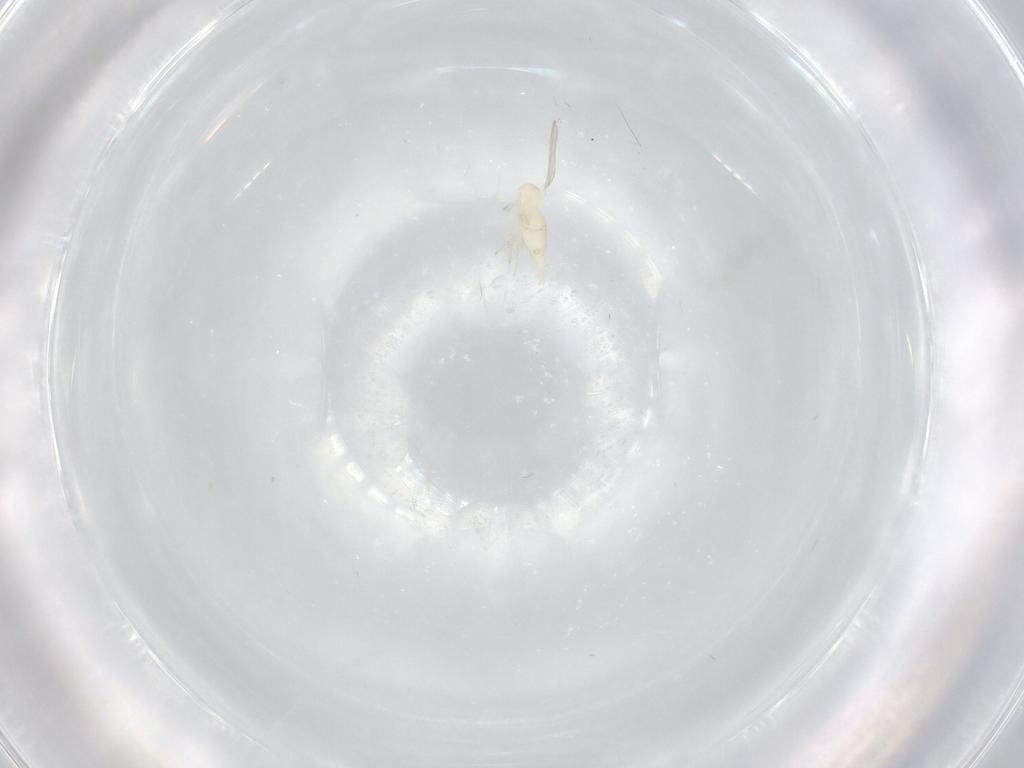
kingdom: Animalia
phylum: Arthropoda
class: Insecta
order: Diptera
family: Cecidomyiidae
